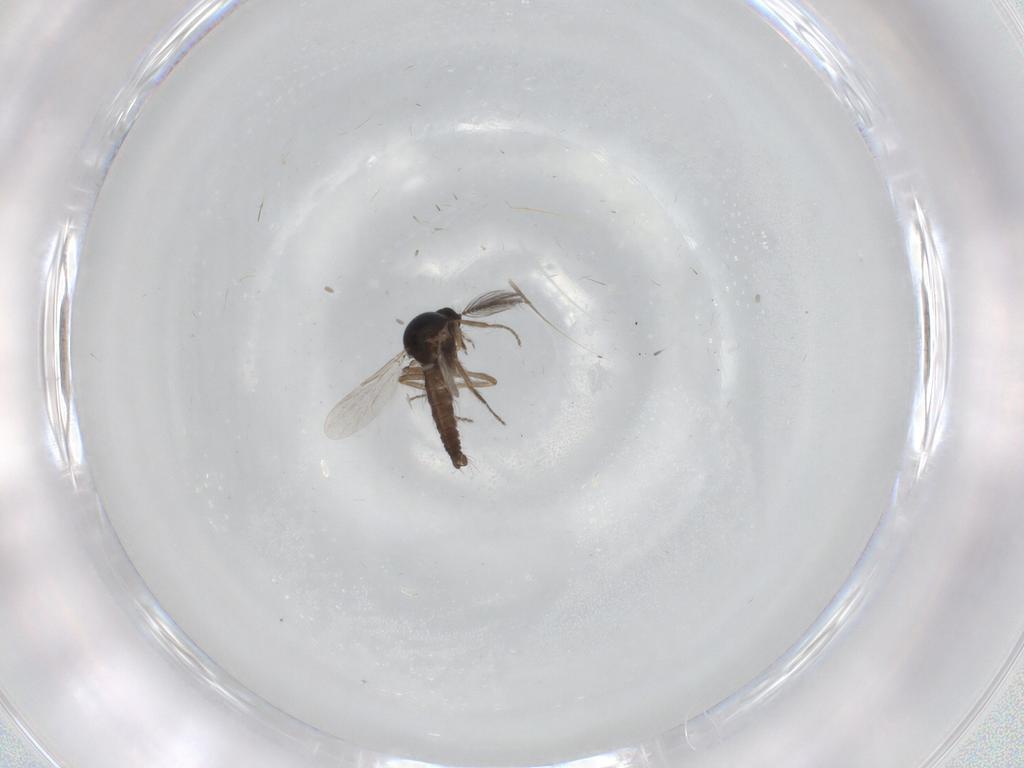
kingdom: Animalia
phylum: Arthropoda
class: Insecta
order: Diptera
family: Ceratopogonidae
